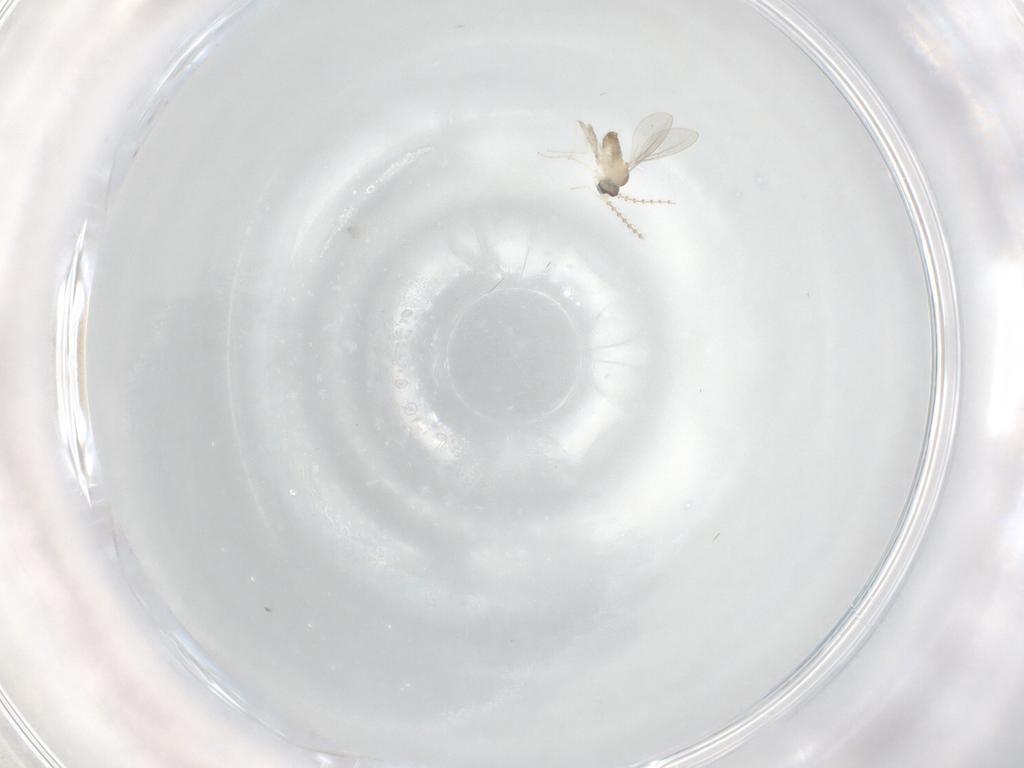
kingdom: Animalia
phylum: Arthropoda
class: Insecta
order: Diptera
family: Cecidomyiidae
